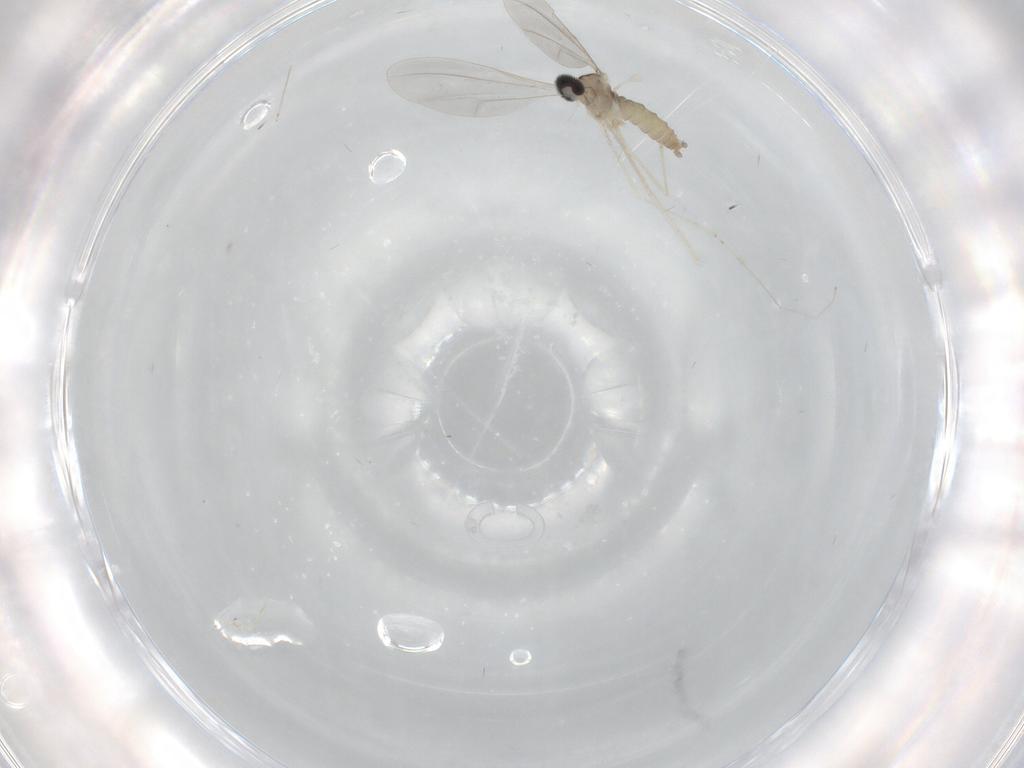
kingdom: Animalia
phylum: Arthropoda
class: Insecta
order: Diptera
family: Cecidomyiidae
